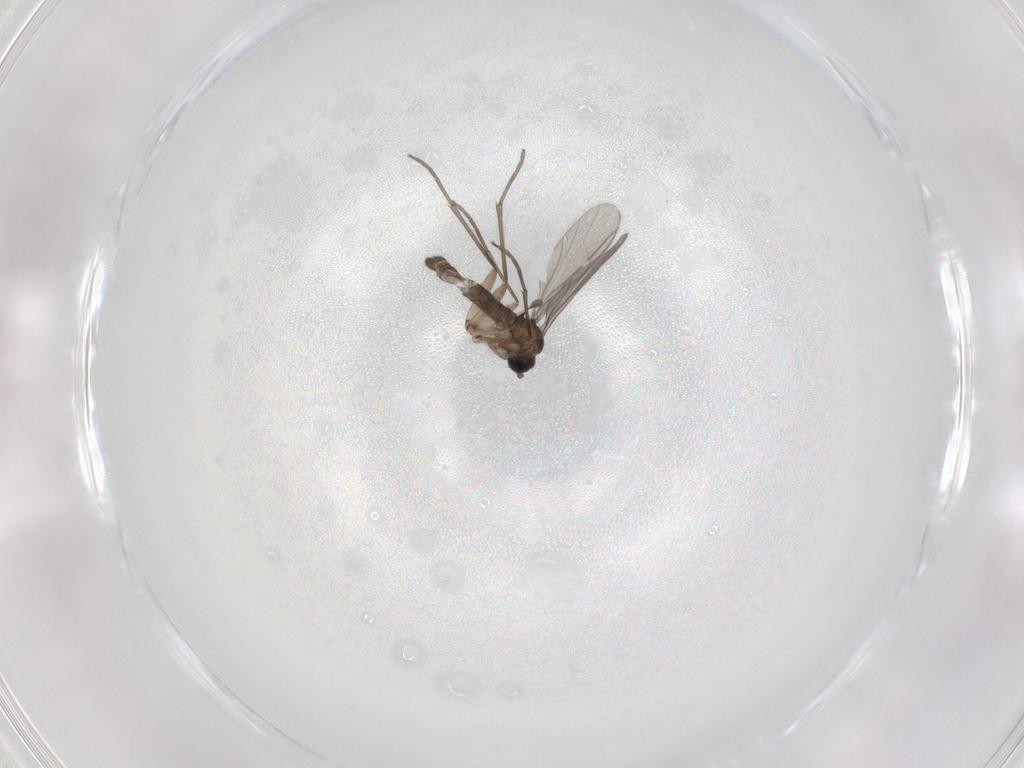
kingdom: Animalia
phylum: Arthropoda
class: Insecta
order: Diptera
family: Sciaridae
